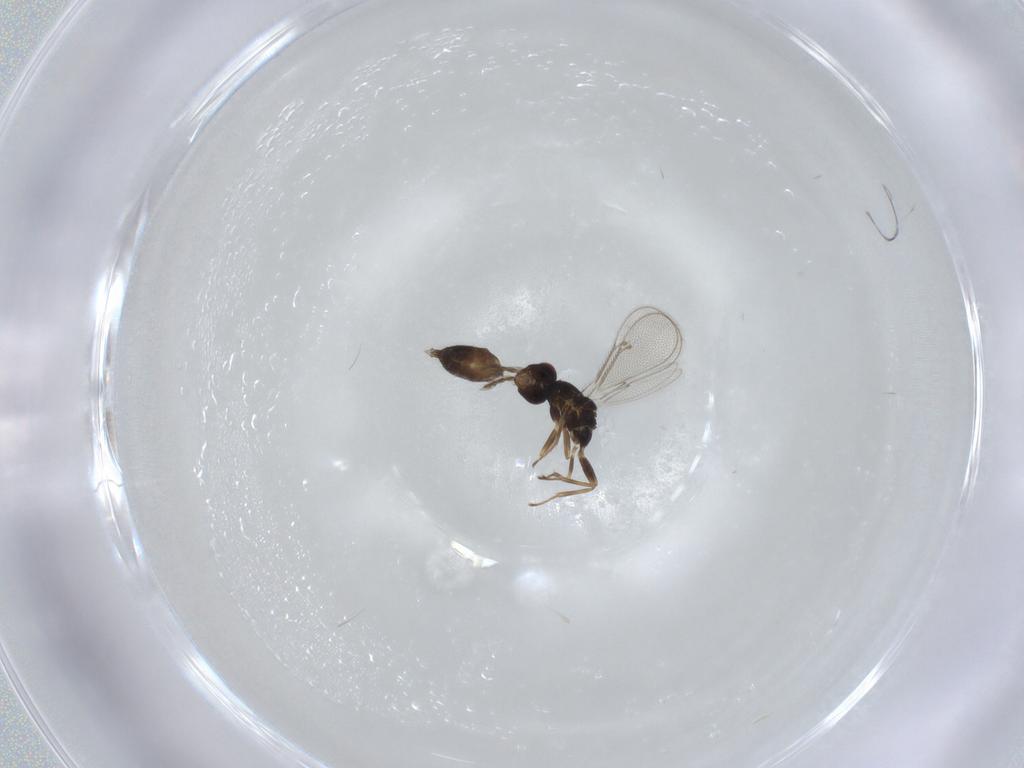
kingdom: Animalia
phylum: Arthropoda
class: Insecta
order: Hymenoptera
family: Eulophidae
